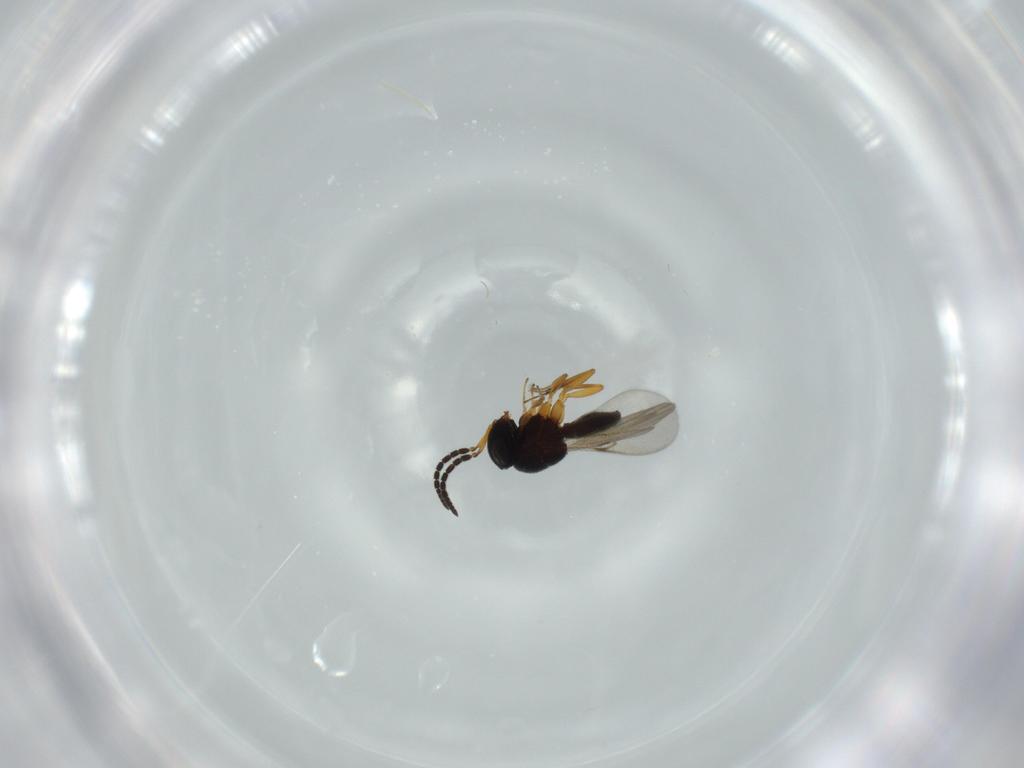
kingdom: Animalia
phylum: Arthropoda
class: Insecta
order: Hymenoptera
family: Scelionidae
